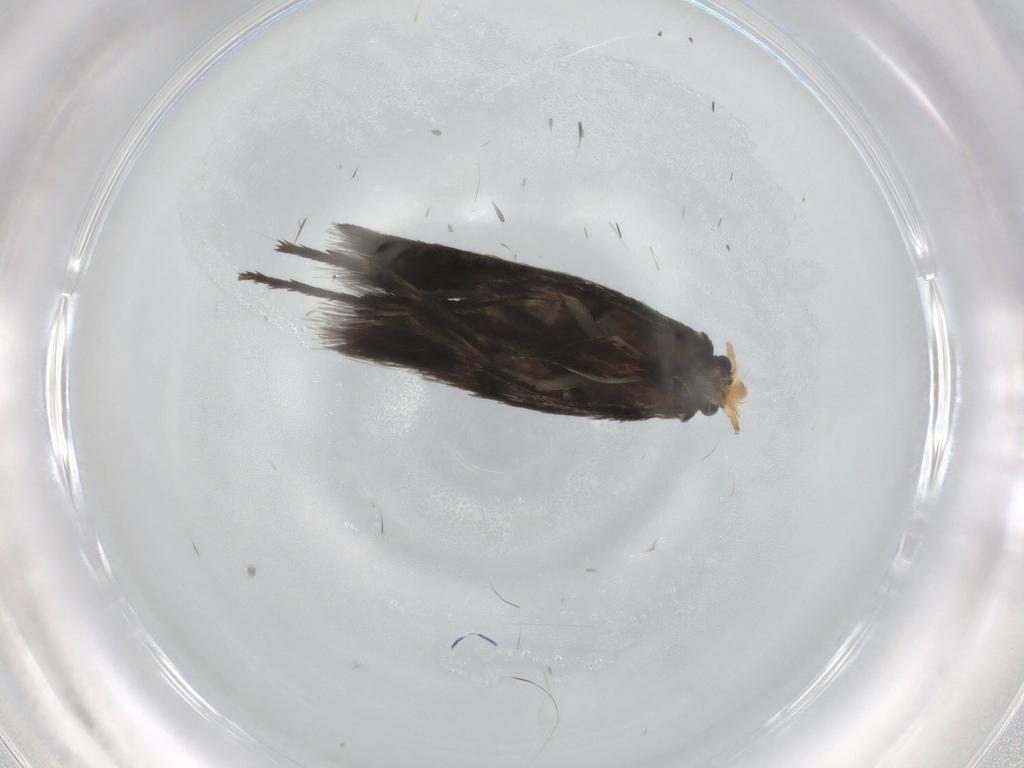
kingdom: Animalia
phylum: Arthropoda
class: Insecta
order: Lepidoptera
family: Nepticulidae
